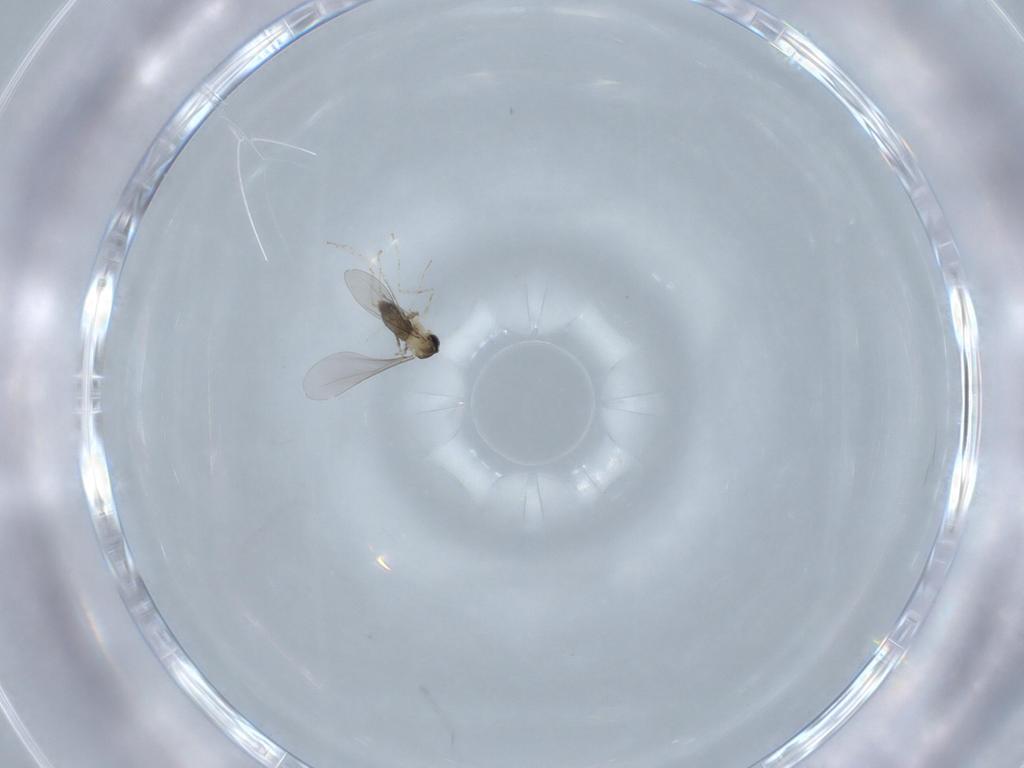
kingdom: Animalia
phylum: Arthropoda
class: Insecta
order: Diptera
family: Cecidomyiidae
